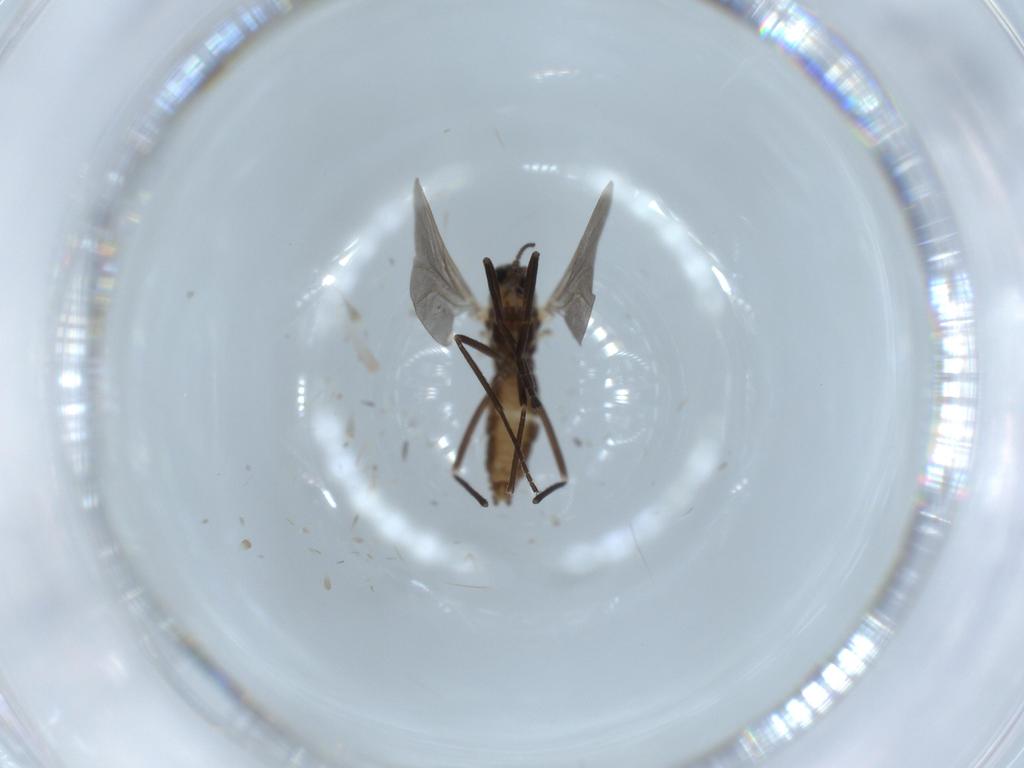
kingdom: Animalia
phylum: Arthropoda
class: Insecta
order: Diptera
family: Cecidomyiidae
